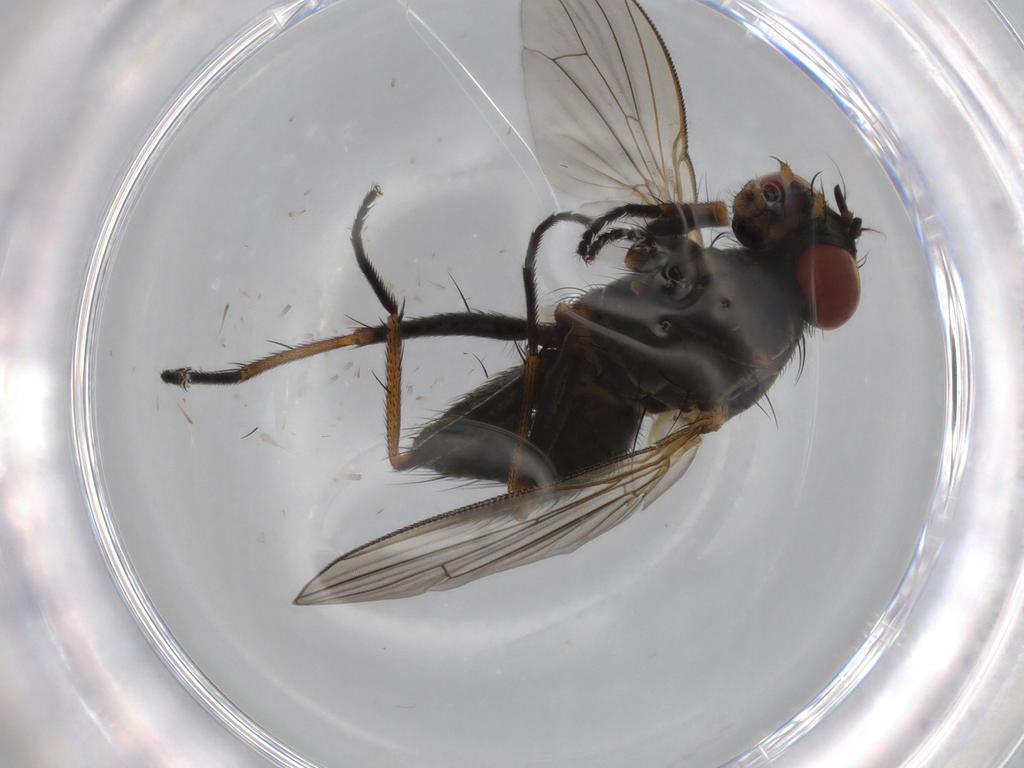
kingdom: Animalia
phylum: Arthropoda
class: Insecta
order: Diptera
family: Muscidae
